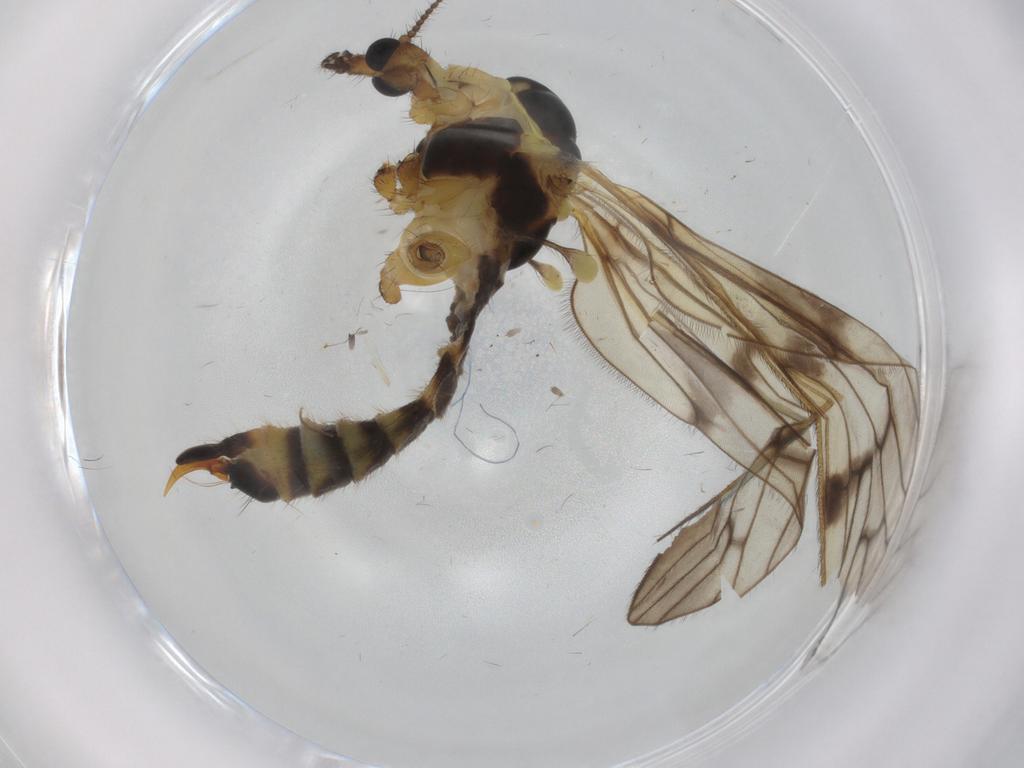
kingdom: Animalia
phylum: Arthropoda
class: Insecta
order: Diptera
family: Cecidomyiidae
